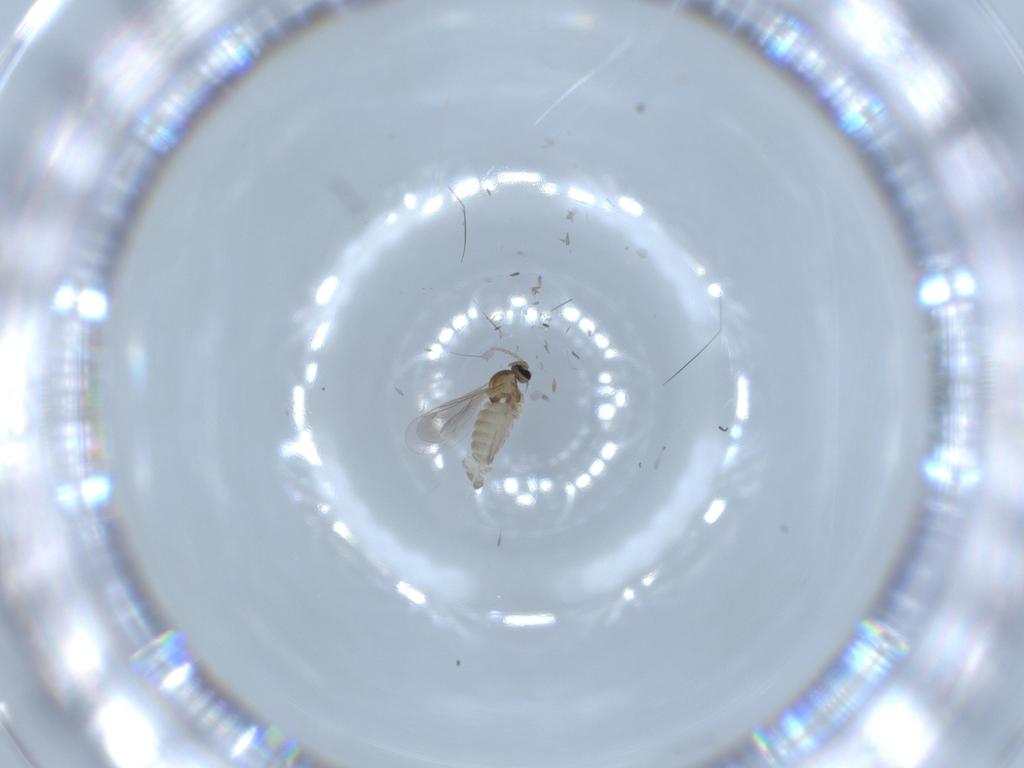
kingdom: Animalia
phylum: Arthropoda
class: Insecta
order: Diptera
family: Cecidomyiidae
